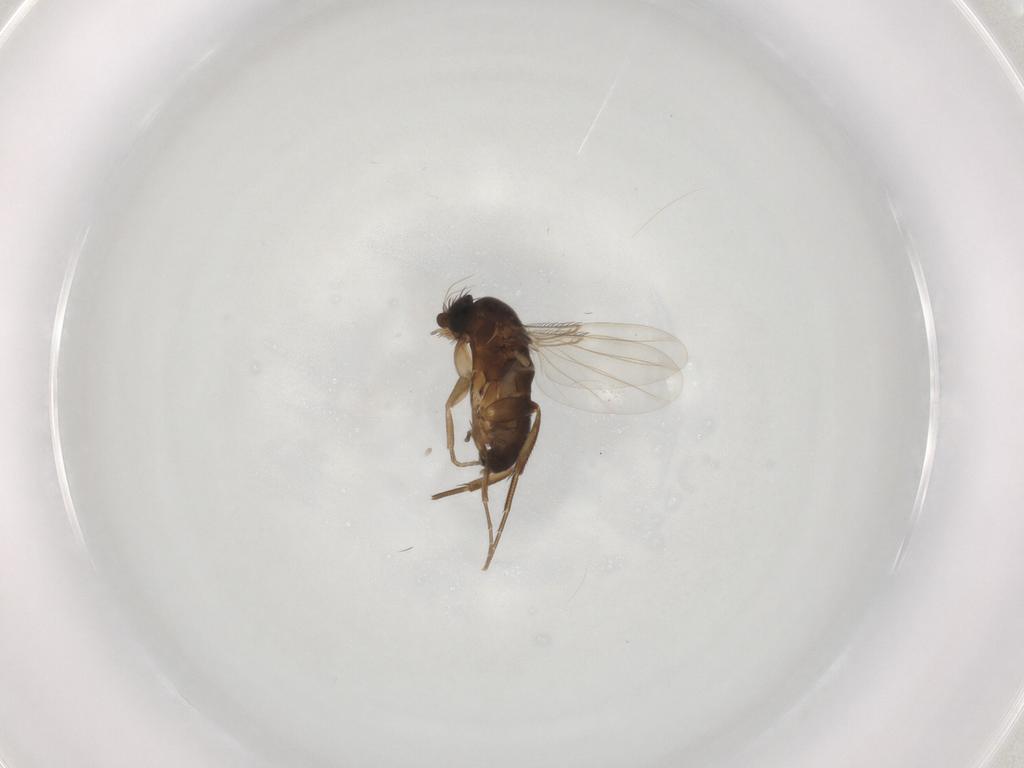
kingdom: Animalia
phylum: Arthropoda
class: Insecta
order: Diptera
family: Phoridae
